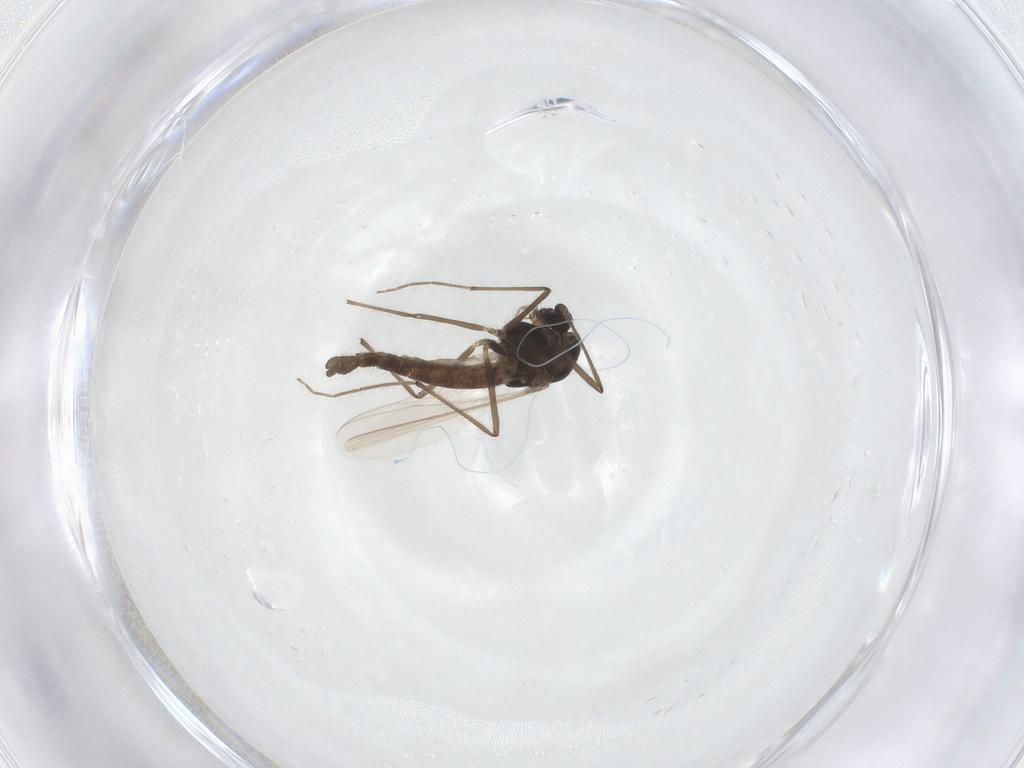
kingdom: Animalia
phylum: Arthropoda
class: Insecta
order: Diptera
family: Chironomidae
